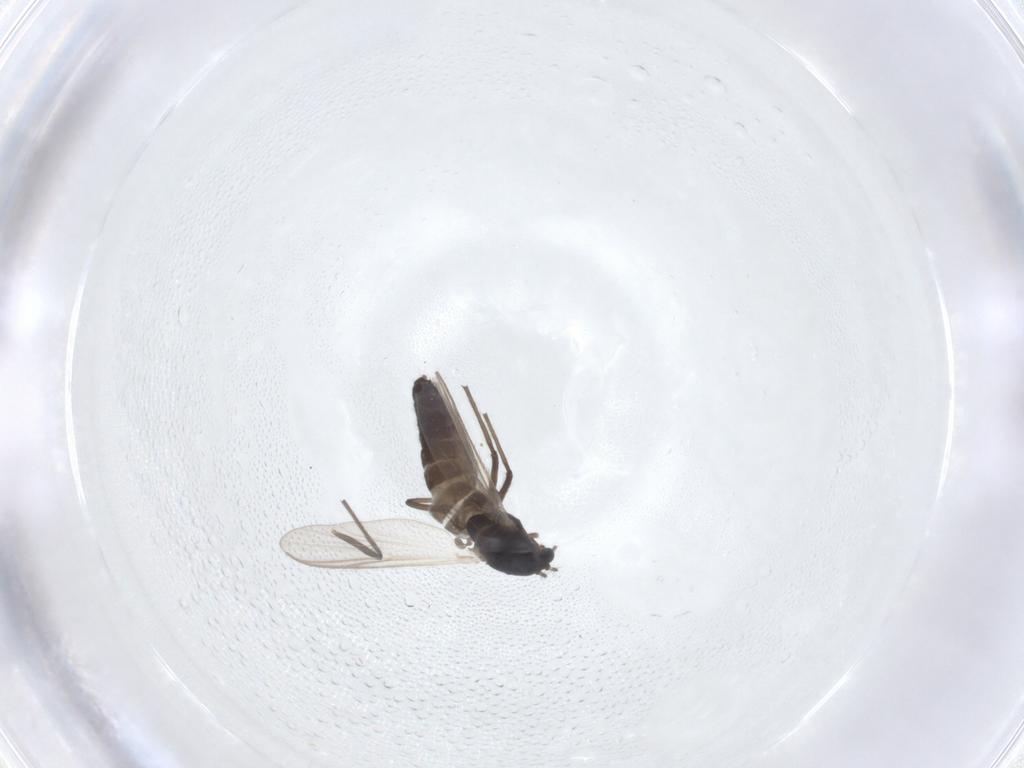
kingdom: Animalia
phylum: Arthropoda
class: Insecta
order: Diptera
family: Chironomidae
